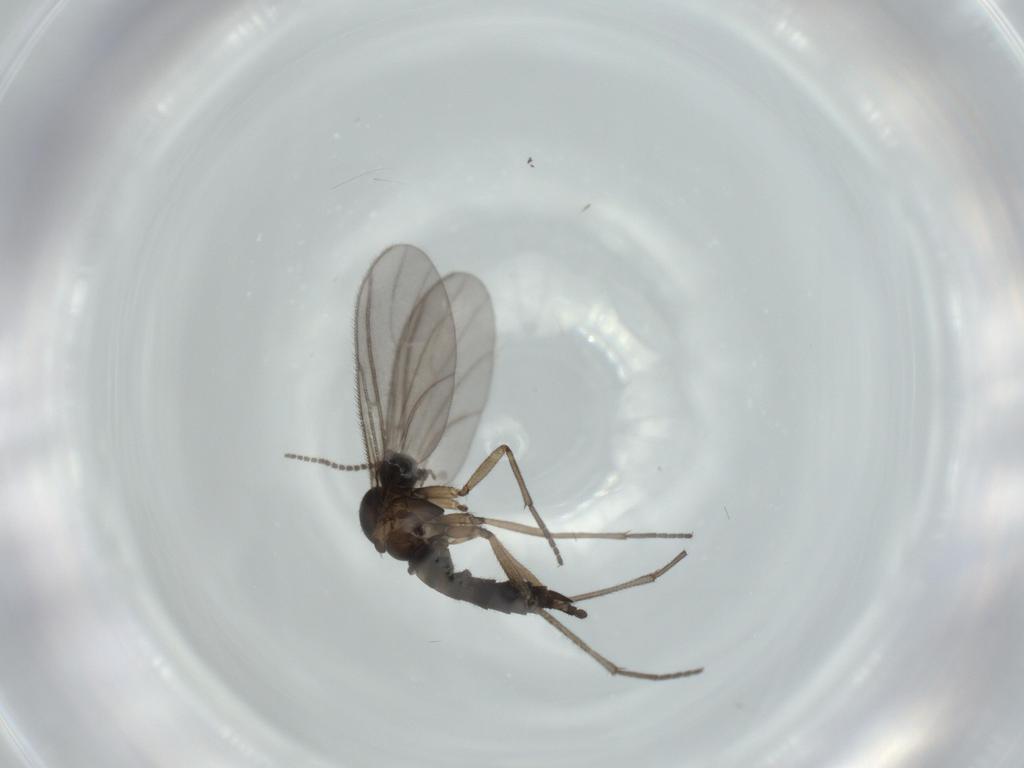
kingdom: Animalia
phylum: Arthropoda
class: Insecta
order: Diptera
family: Sciaridae
